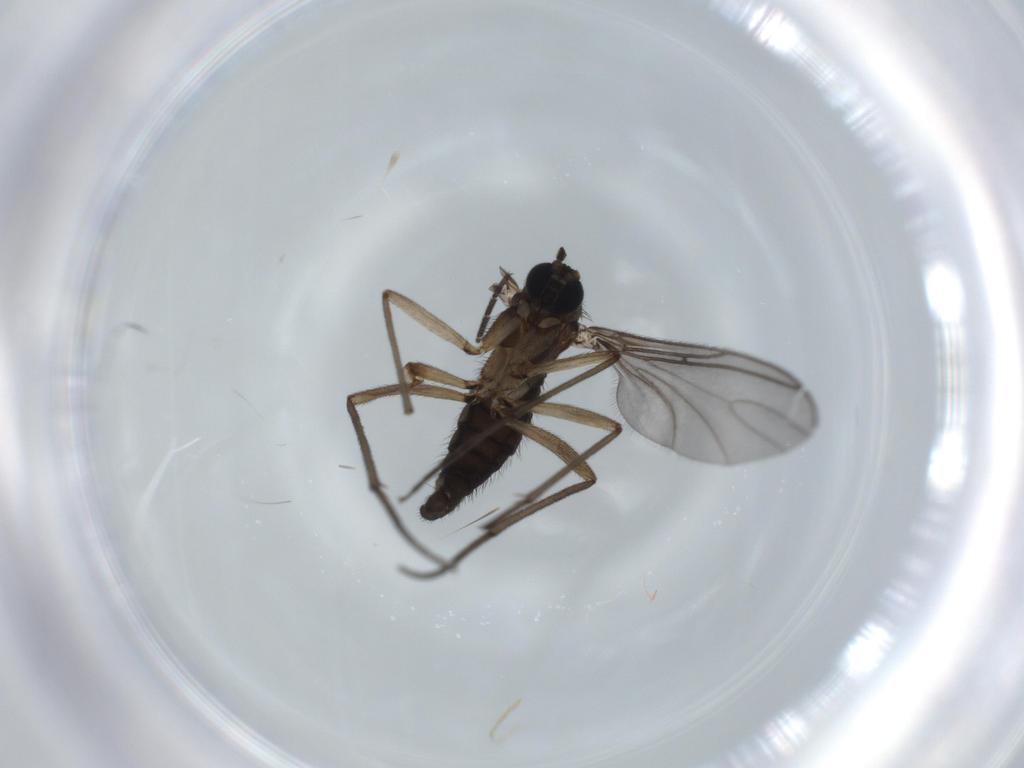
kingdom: Animalia
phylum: Arthropoda
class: Insecta
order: Diptera
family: Sciaridae
